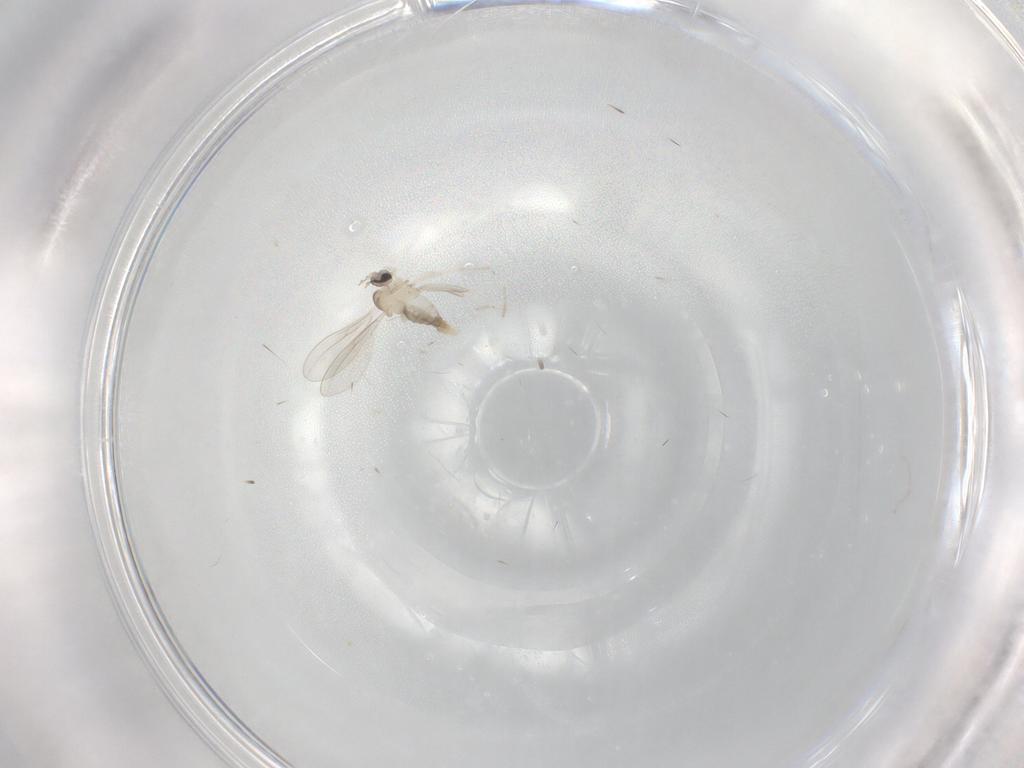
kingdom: Animalia
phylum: Arthropoda
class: Insecta
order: Diptera
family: Cecidomyiidae
